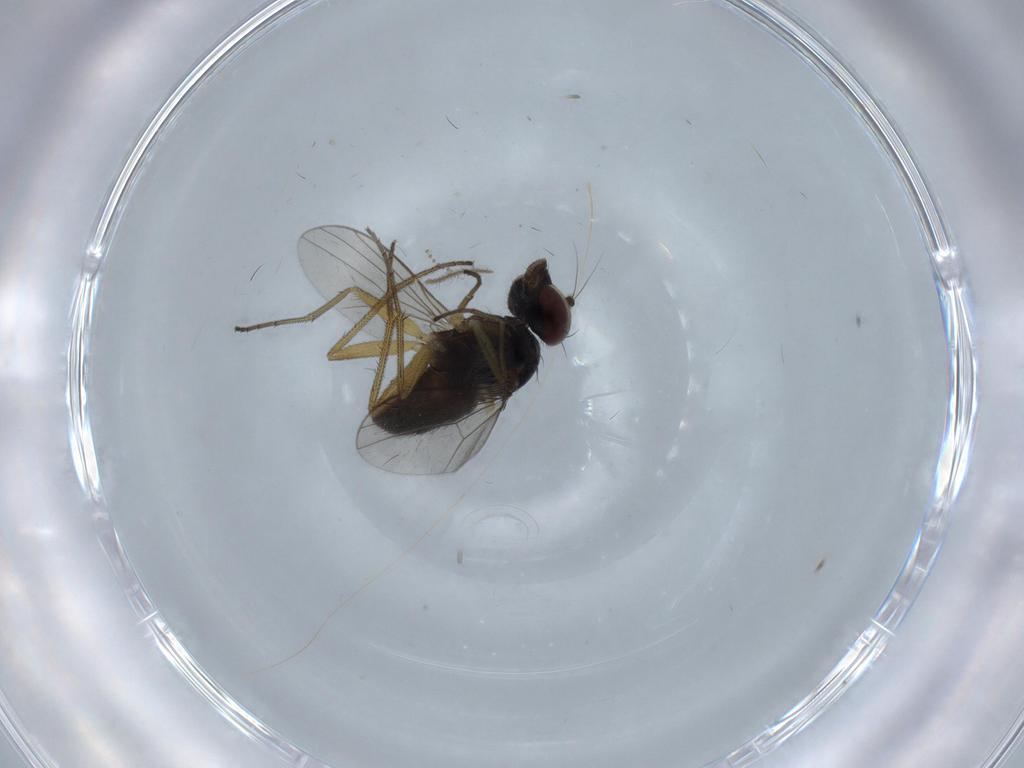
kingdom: Animalia
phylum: Arthropoda
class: Insecta
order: Diptera
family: Dolichopodidae
